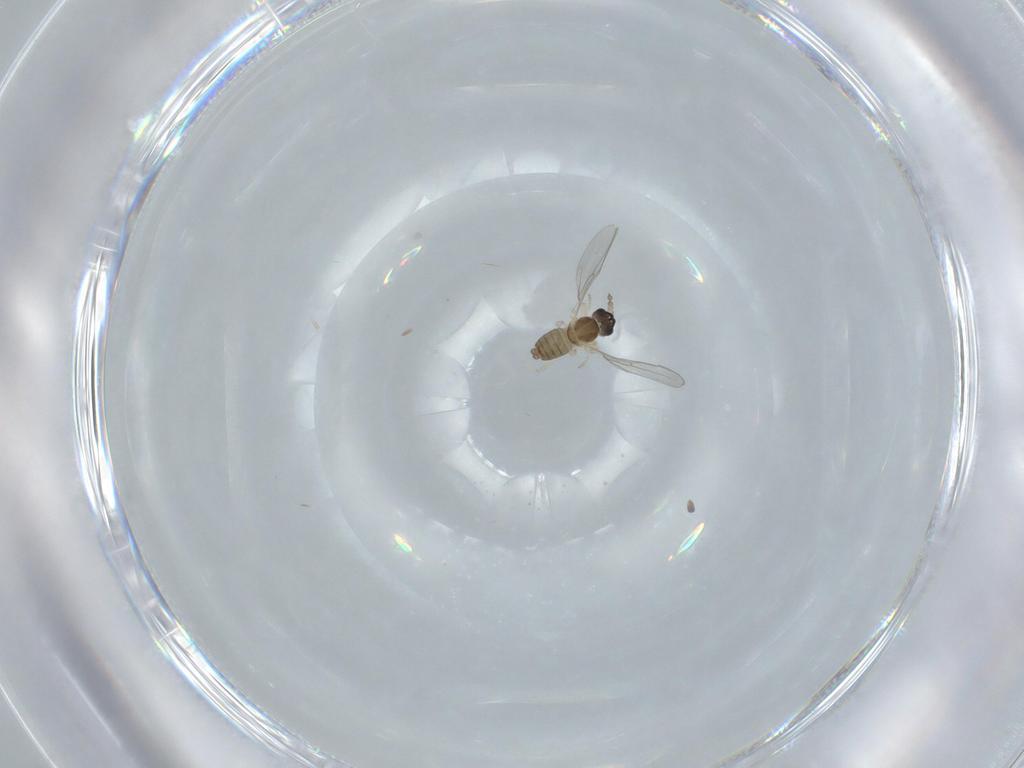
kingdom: Animalia
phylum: Arthropoda
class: Insecta
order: Diptera
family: Cecidomyiidae
